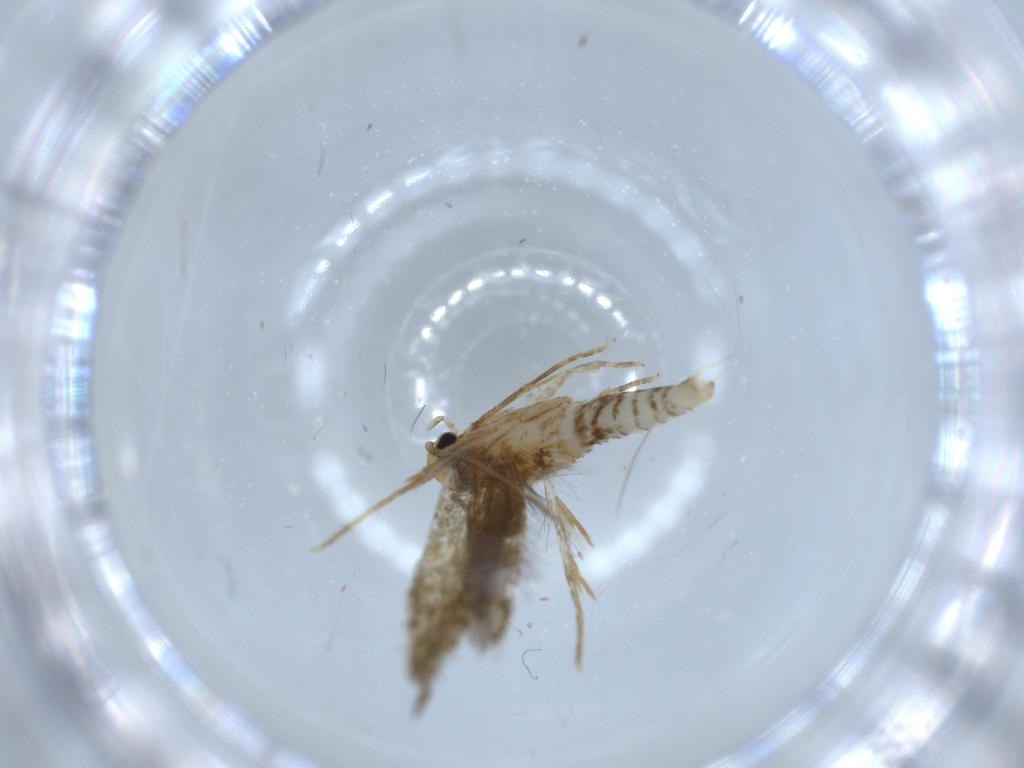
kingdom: Animalia
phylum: Arthropoda
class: Insecta
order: Lepidoptera
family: Tineidae
